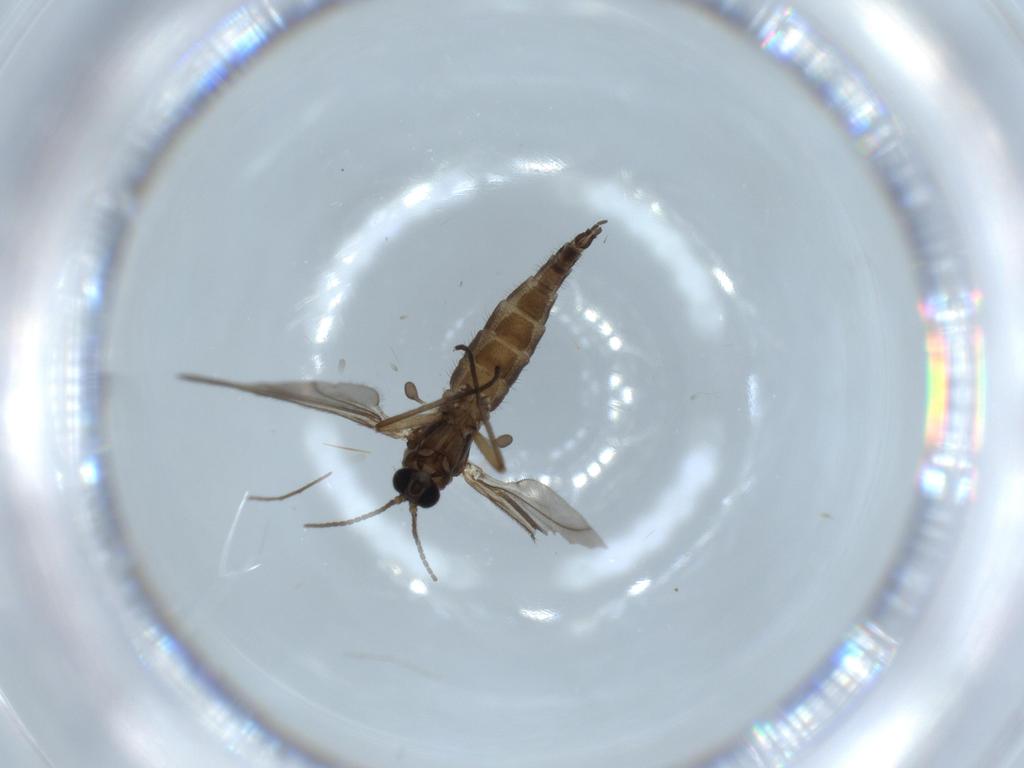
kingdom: Animalia
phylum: Arthropoda
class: Insecta
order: Diptera
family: Sciaridae
